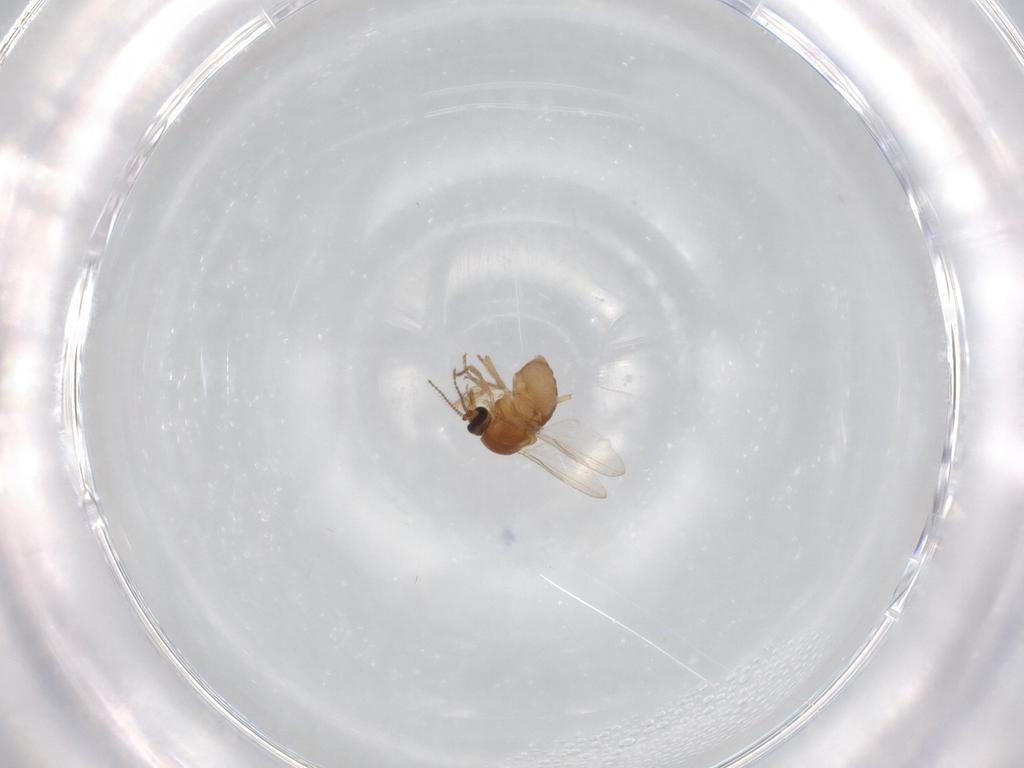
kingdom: Animalia
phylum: Arthropoda
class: Insecta
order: Diptera
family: Ceratopogonidae
